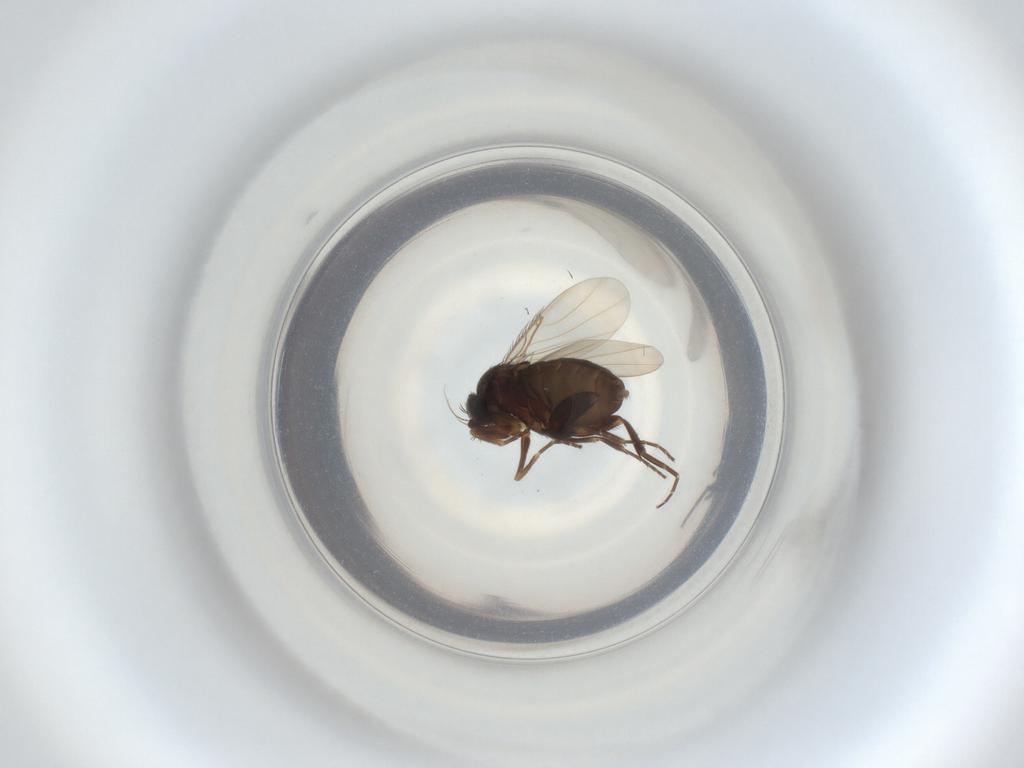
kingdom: Animalia
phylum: Arthropoda
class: Insecta
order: Diptera
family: Phoridae
